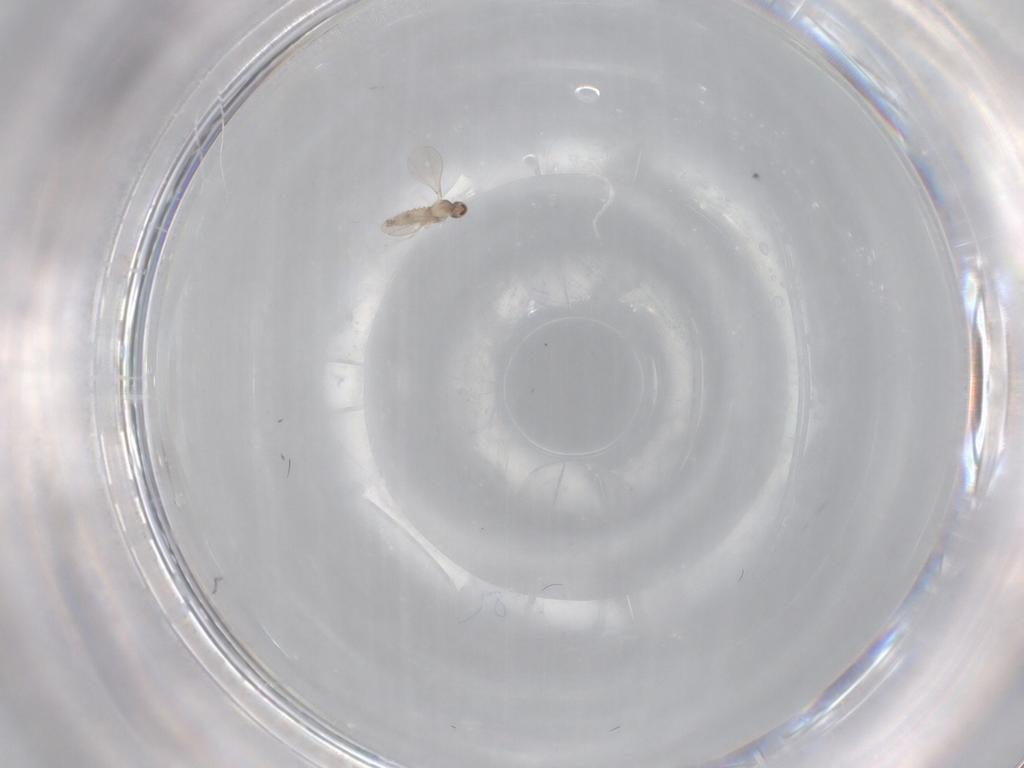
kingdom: Animalia
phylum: Arthropoda
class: Insecta
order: Diptera
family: Cecidomyiidae
